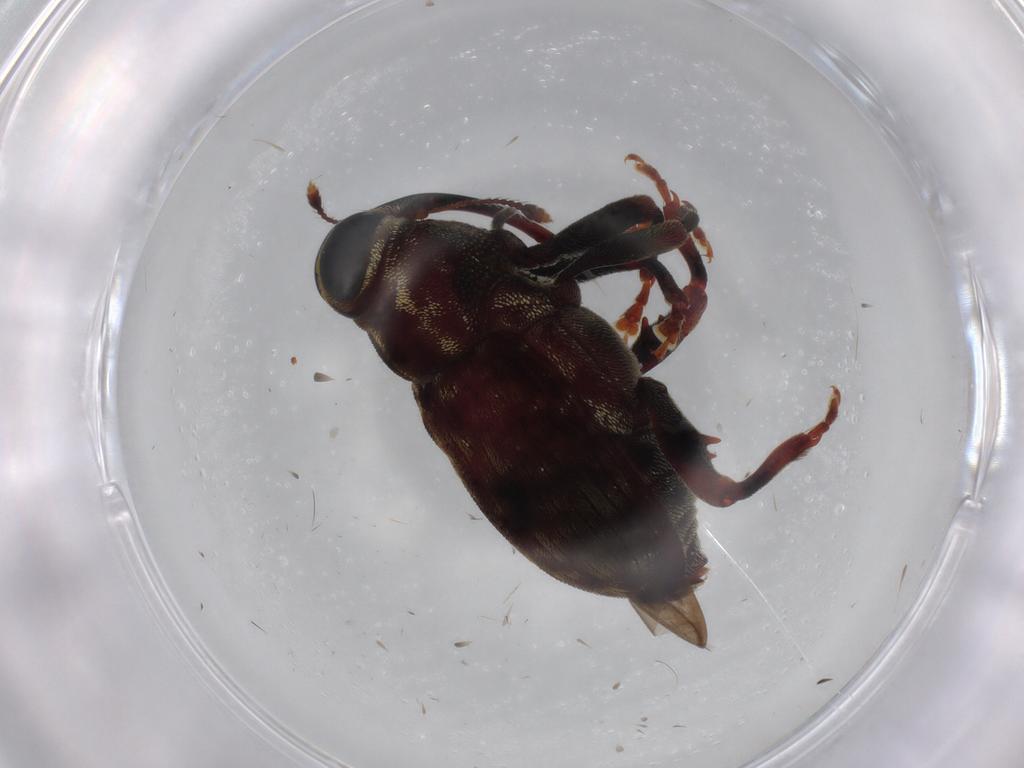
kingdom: Animalia
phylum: Arthropoda
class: Insecta
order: Coleoptera
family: Curculionidae
